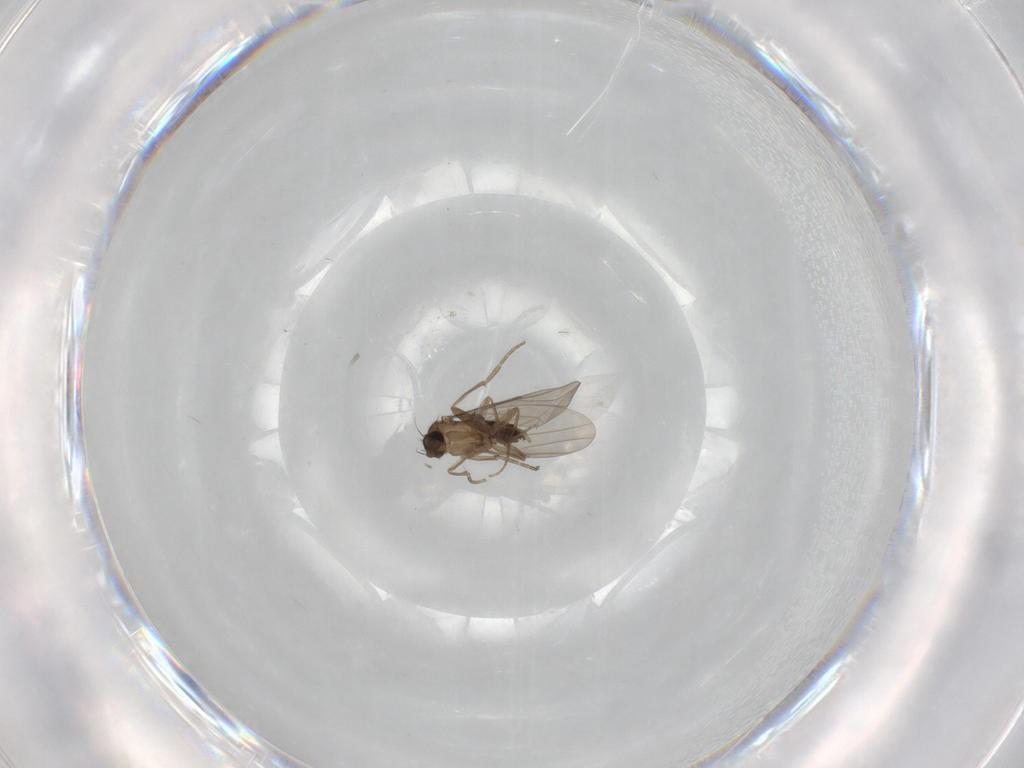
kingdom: Animalia
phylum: Arthropoda
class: Insecta
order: Diptera
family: Phoridae
